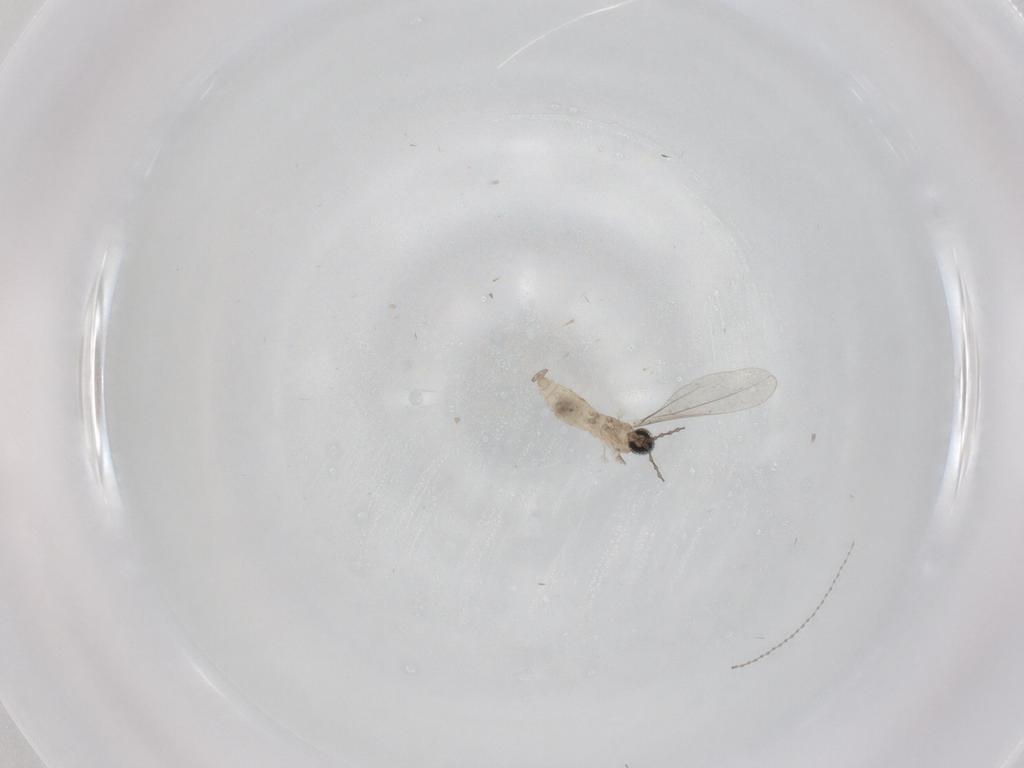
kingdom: Animalia
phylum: Arthropoda
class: Insecta
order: Diptera
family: Cecidomyiidae
